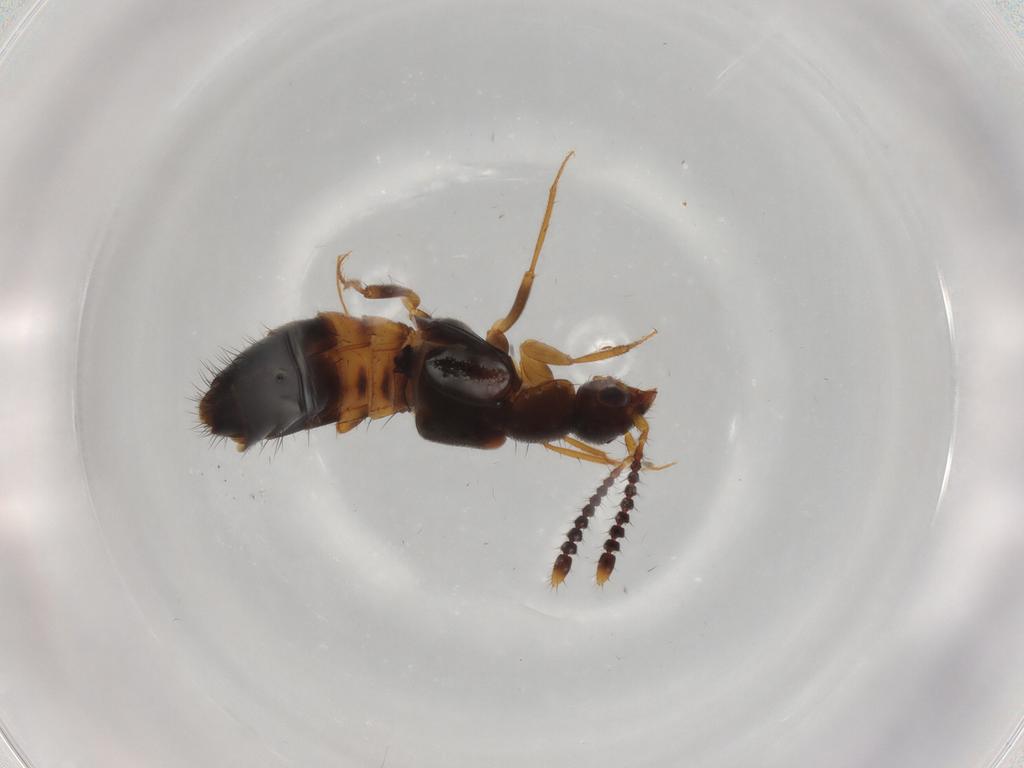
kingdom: Animalia
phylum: Arthropoda
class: Insecta
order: Coleoptera
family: Staphylinidae
